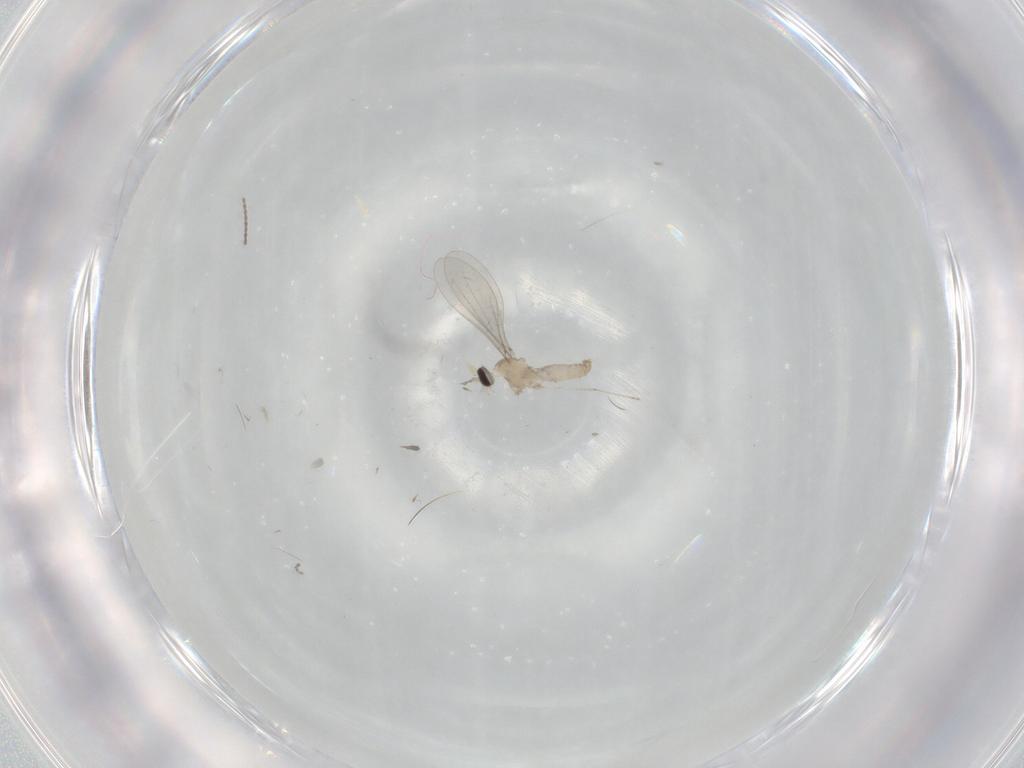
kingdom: Animalia
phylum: Arthropoda
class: Insecta
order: Diptera
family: Cecidomyiidae
